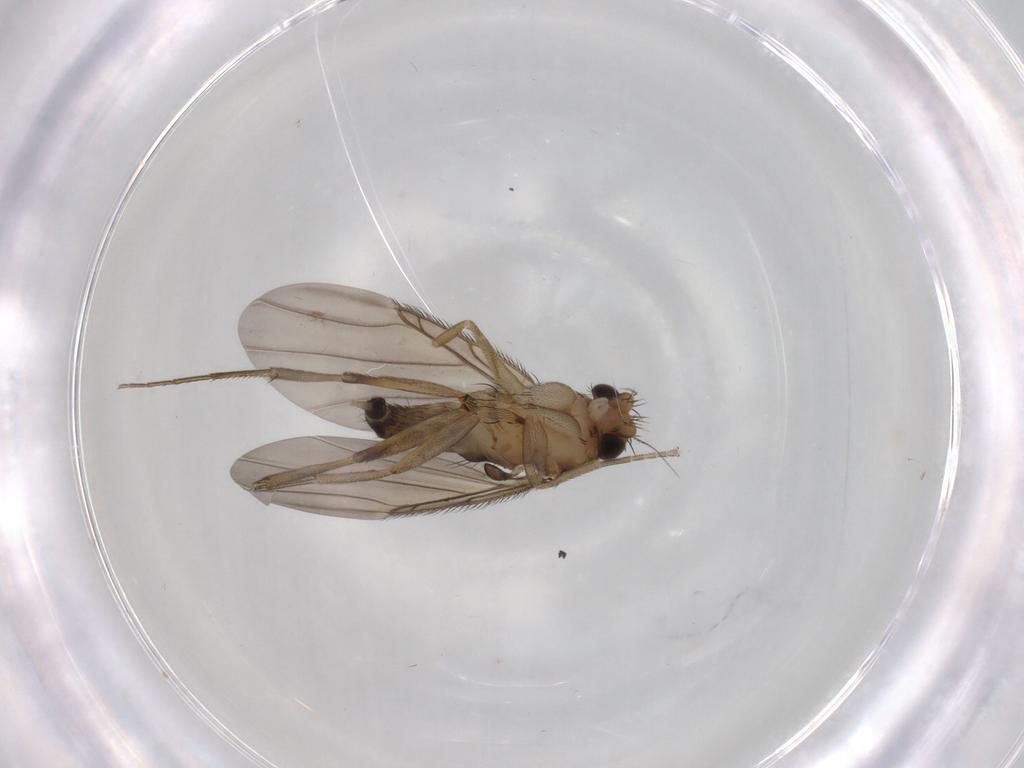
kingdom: Animalia
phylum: Arthropoda
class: Insecta
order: Diptera
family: Phoridae
